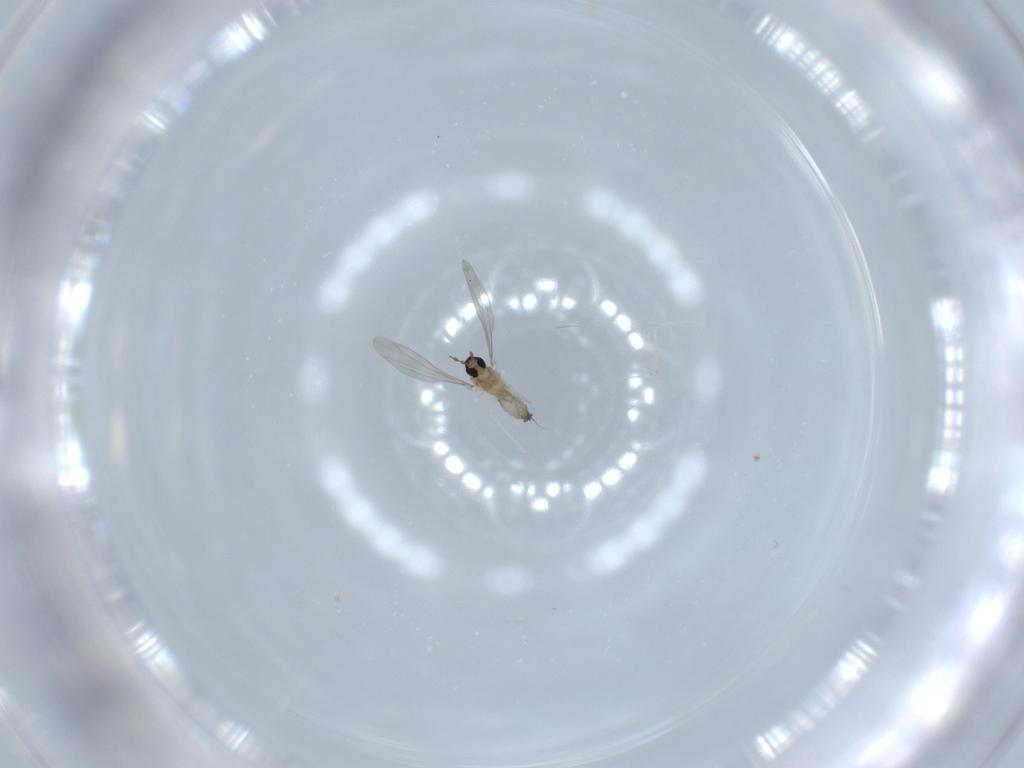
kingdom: Animalia
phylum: Arthropoda
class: Insecta
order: Diptera
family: Cecidomyiidae
